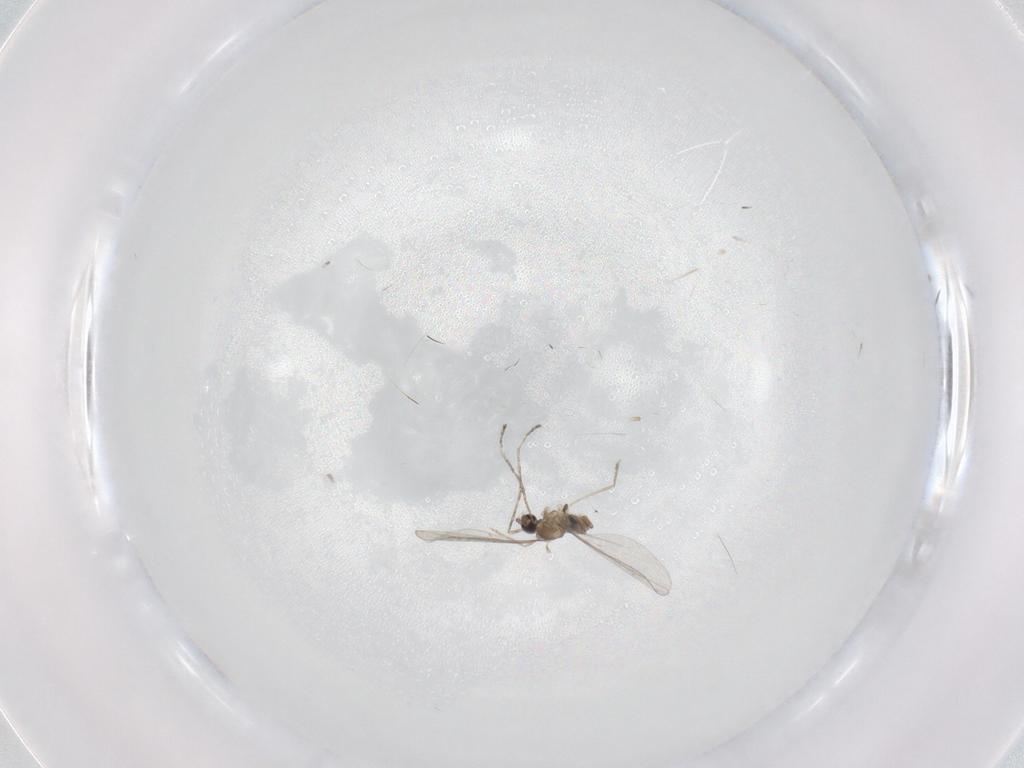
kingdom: Animalia
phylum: Arthropoda
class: Insecta
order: Diptera
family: Cecidomyiidae
